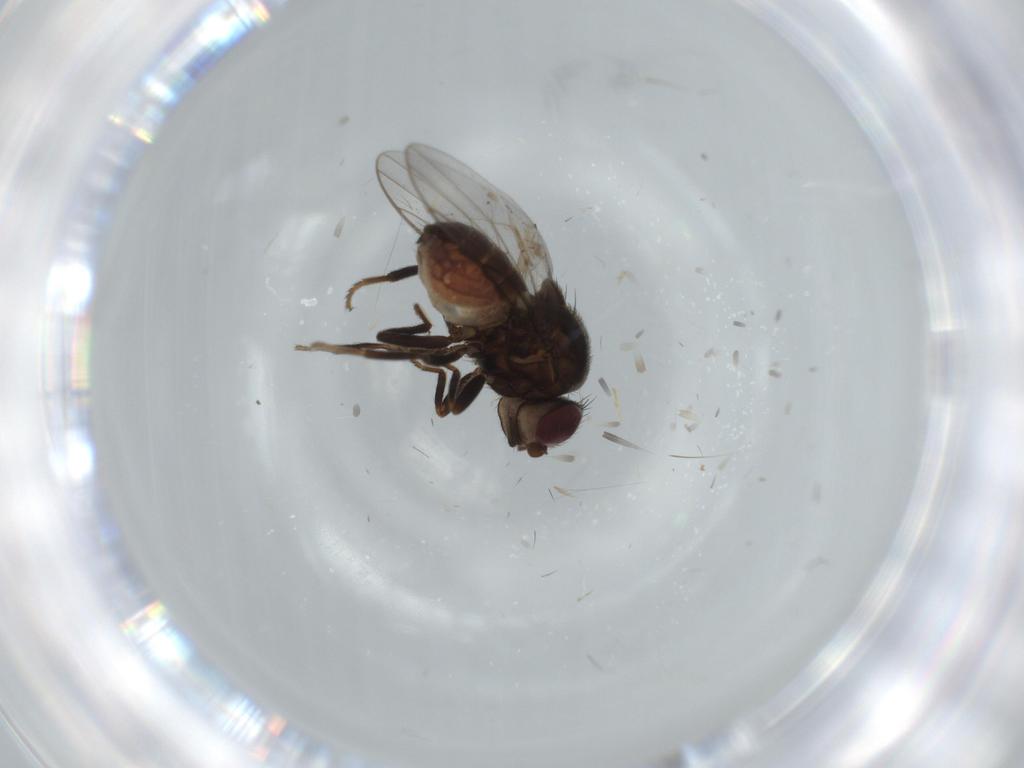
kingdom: Animalia
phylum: Arthropoda
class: Insecta
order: Diptera
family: Chloropidae
